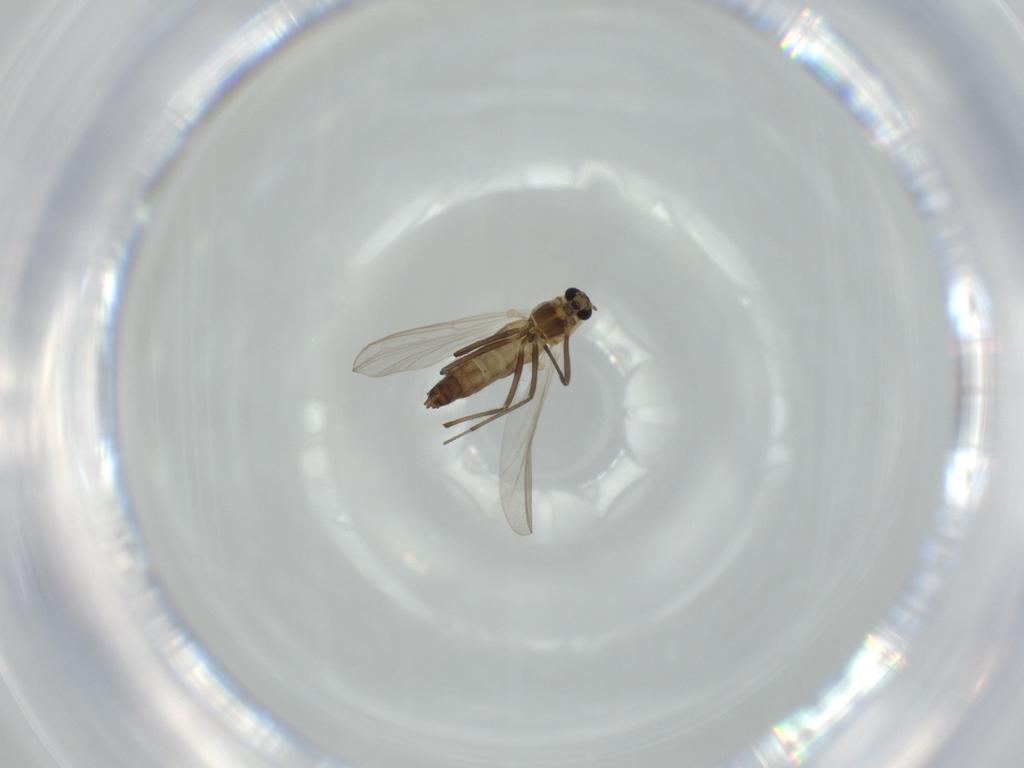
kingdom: Animalia
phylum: Arthropoda
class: Insecta
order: Diptera
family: Chironomidae
